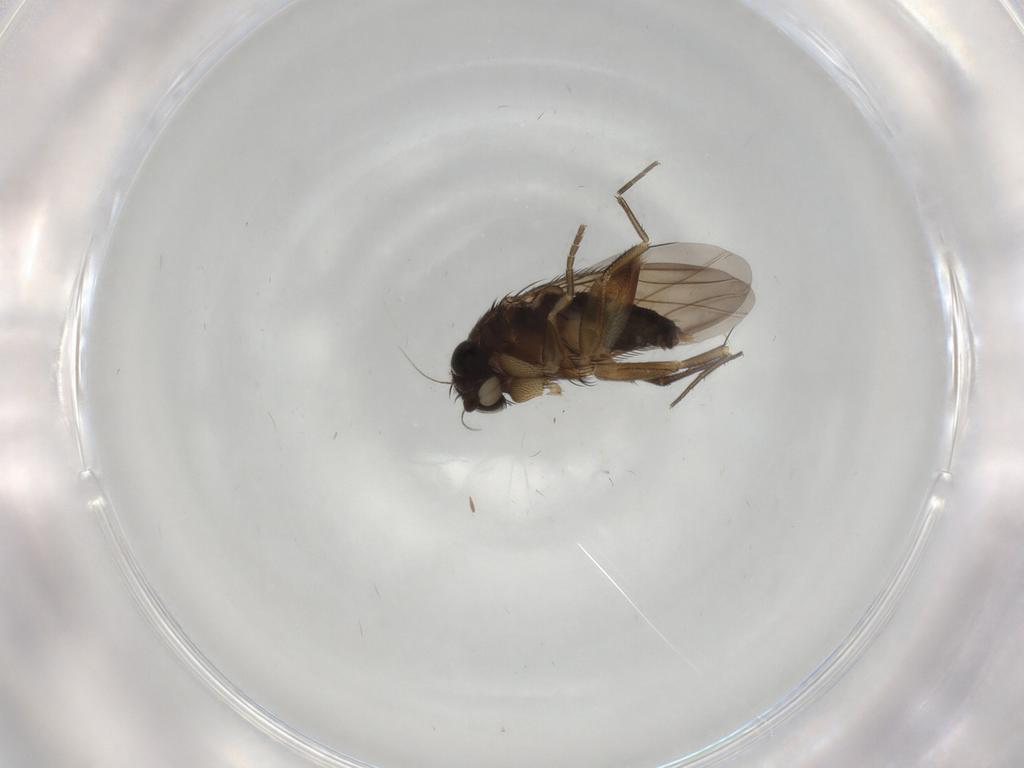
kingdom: Animalia
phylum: Arthropoda
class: Insecta
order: Diptera
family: Phoridae
